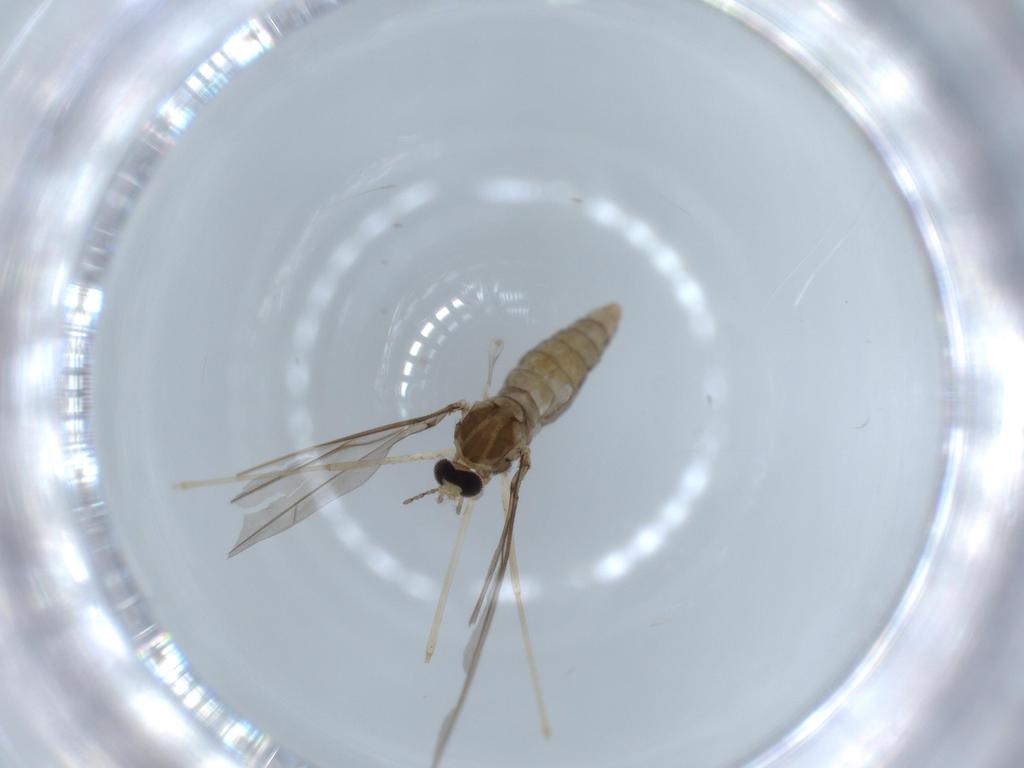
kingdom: Animalia
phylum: Arthropoda
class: Insecta
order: Diptera
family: Cecidomyiidae
